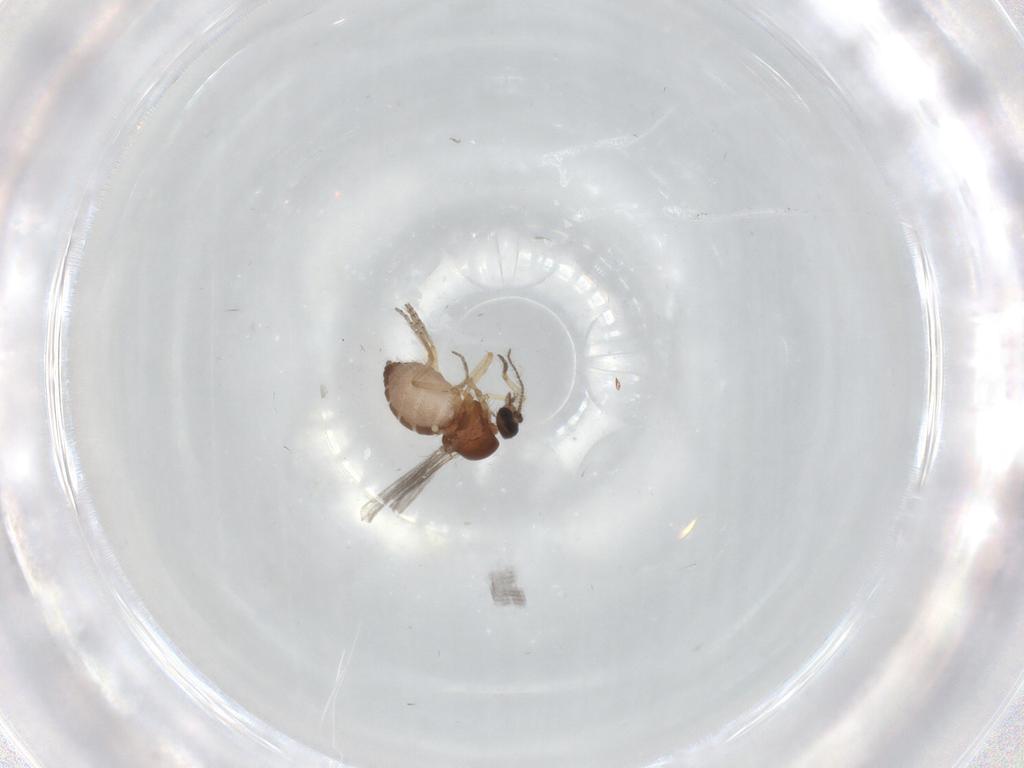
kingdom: Animalia
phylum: Arthropoda
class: Insecta
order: Diptera
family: Ceratopogonidae
